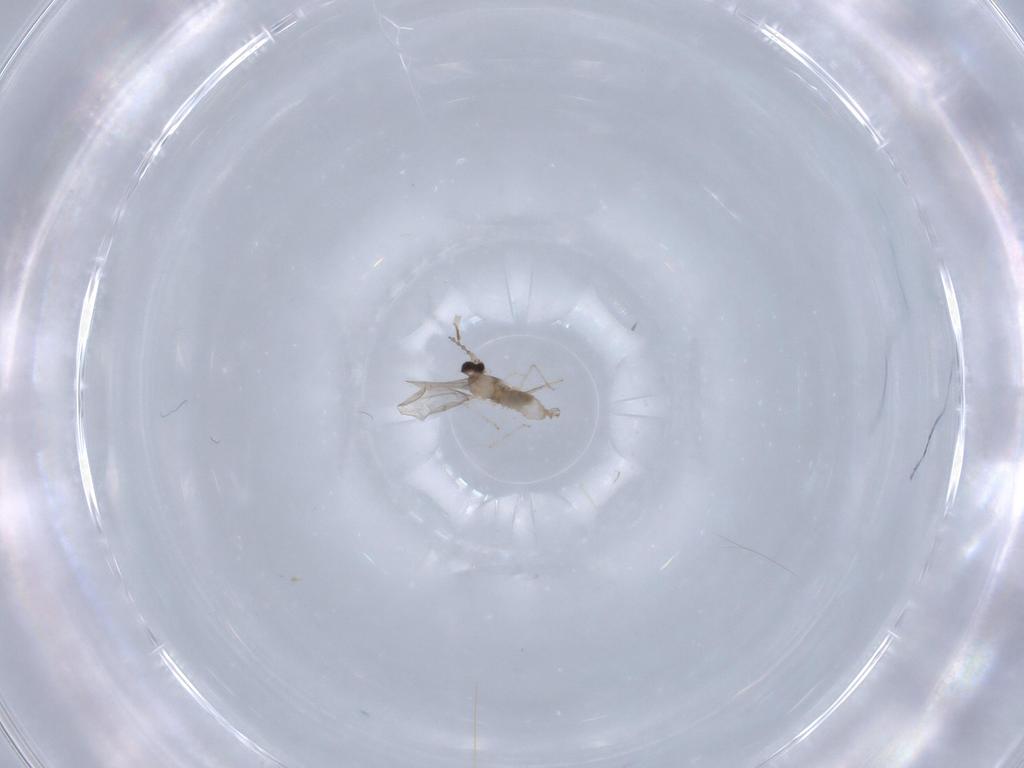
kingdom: Animalia
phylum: Arthropoda
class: Insecta
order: Diptera
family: Cecidomyiidae
